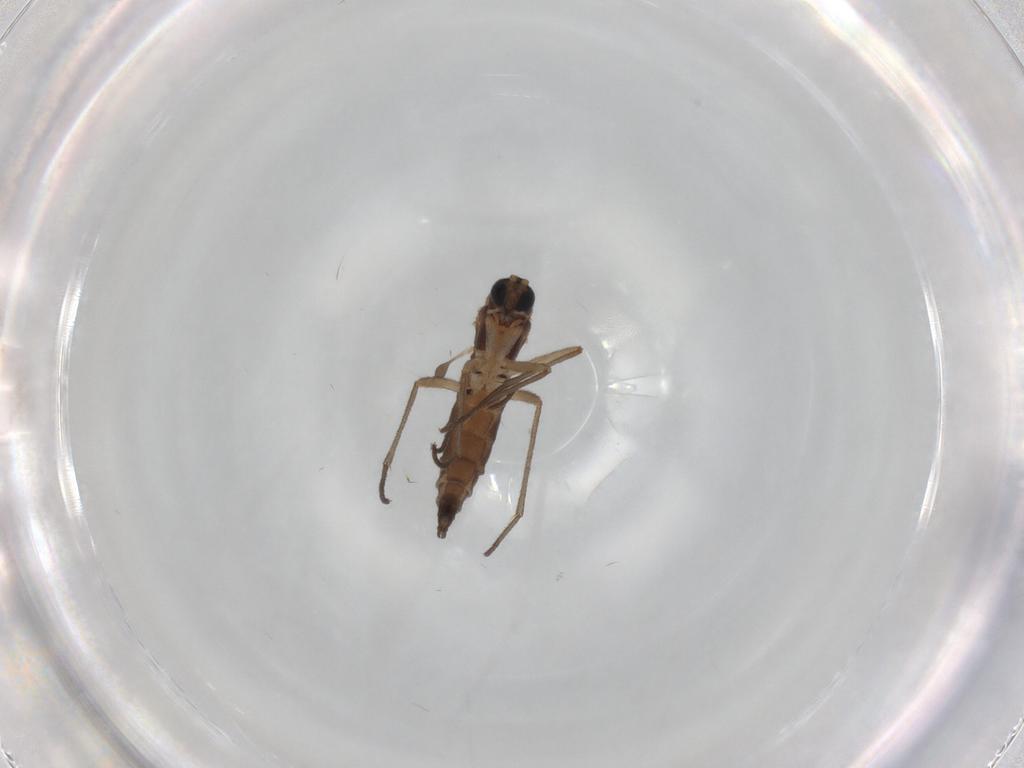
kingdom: Animalia
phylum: Arthropoda
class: Insecta
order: Diptera
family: Sciaridae
